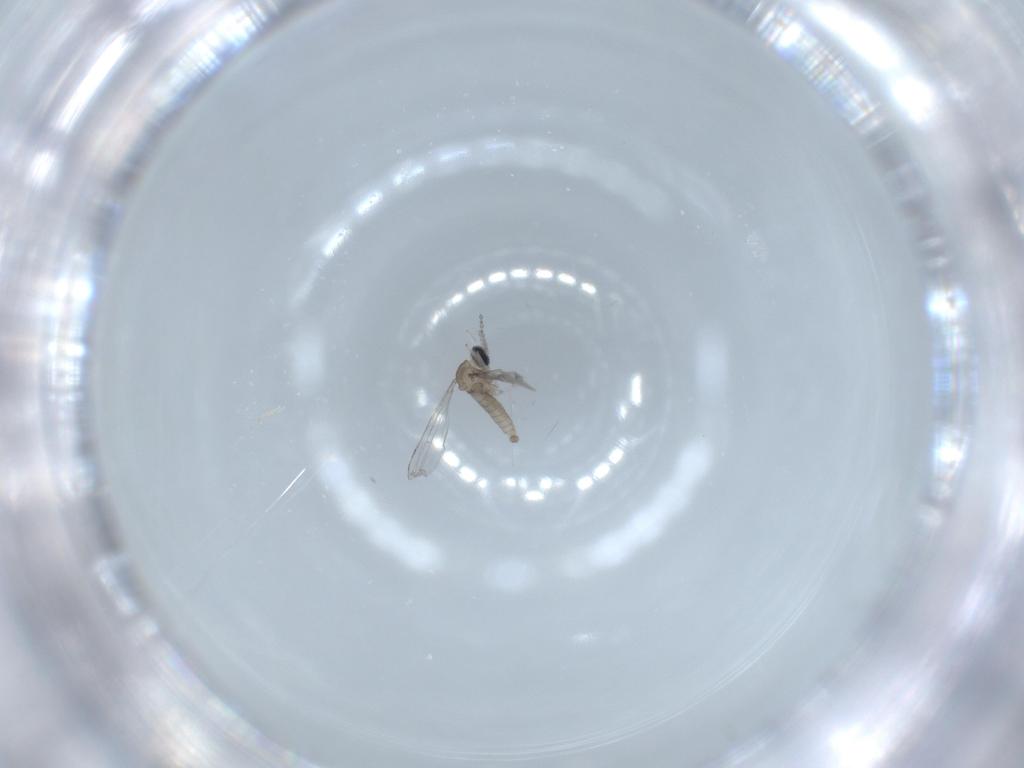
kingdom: Animalia
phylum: Arthropoda
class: Insecta
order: Diptera
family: Cecidomyiidae
